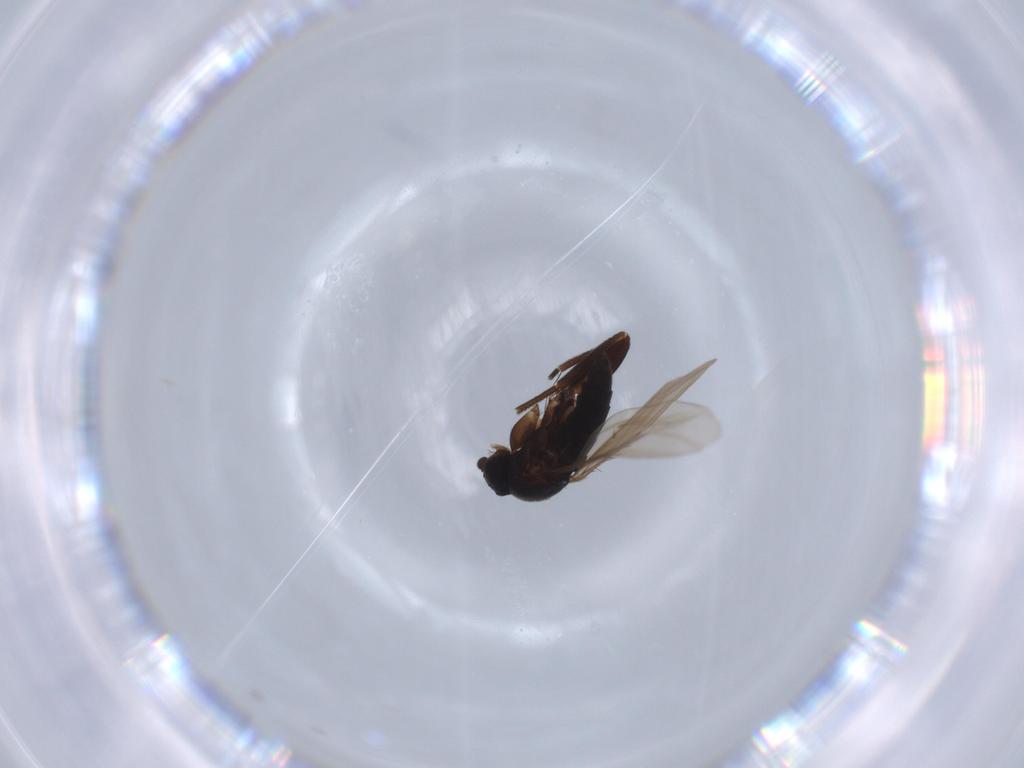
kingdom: Animalia
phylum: Arthropoda
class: Insecta
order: Diptera
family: Phoridae
